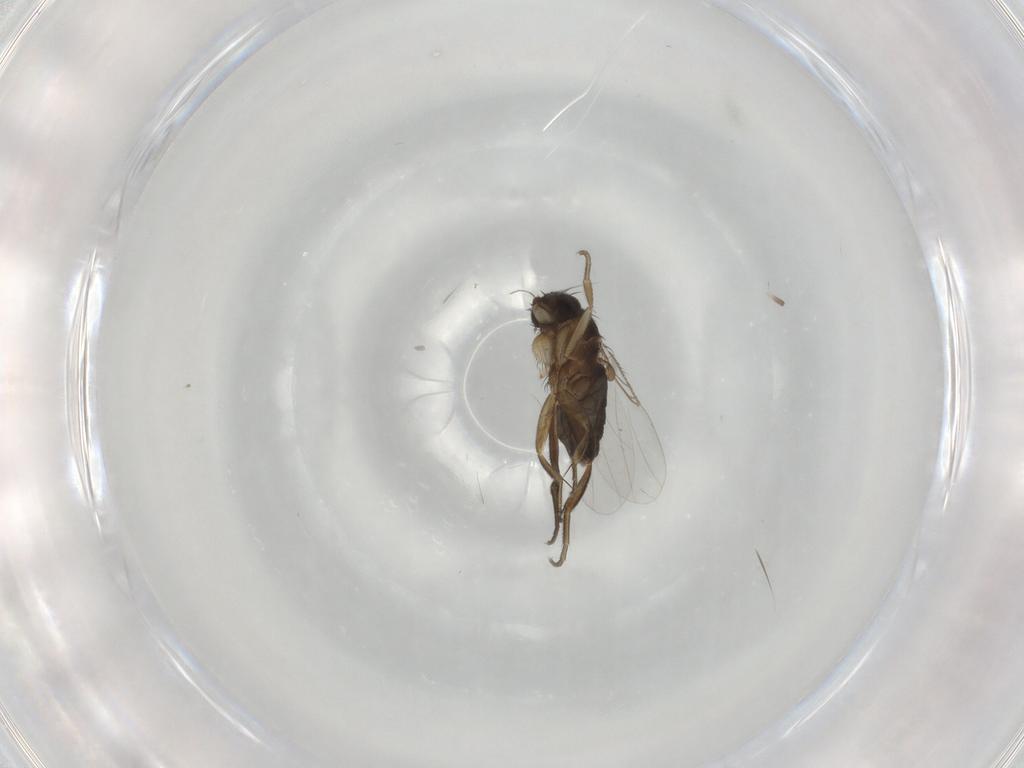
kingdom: Animalia
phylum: Arthropoda
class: Insecta
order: Diptera
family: Phoridae
